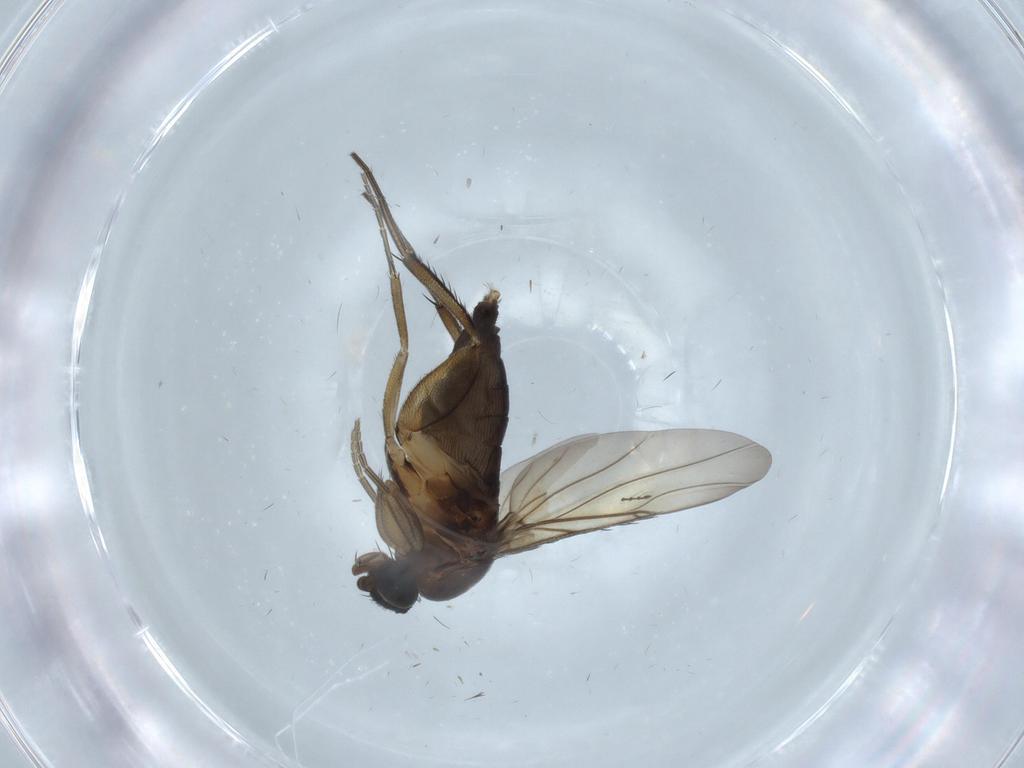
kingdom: Animalia
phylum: Arthropoda
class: Insecta
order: Diptera
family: Phoridae
